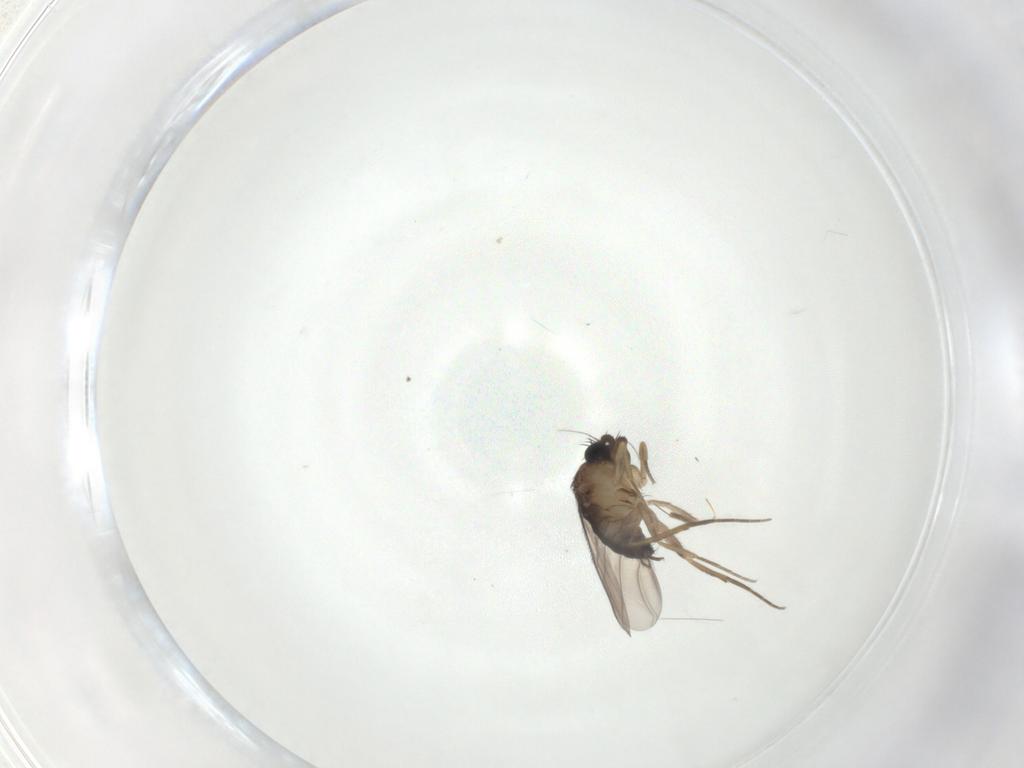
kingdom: Animalia
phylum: Arthropoda
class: Insecta
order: Diptera
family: Phoridae
